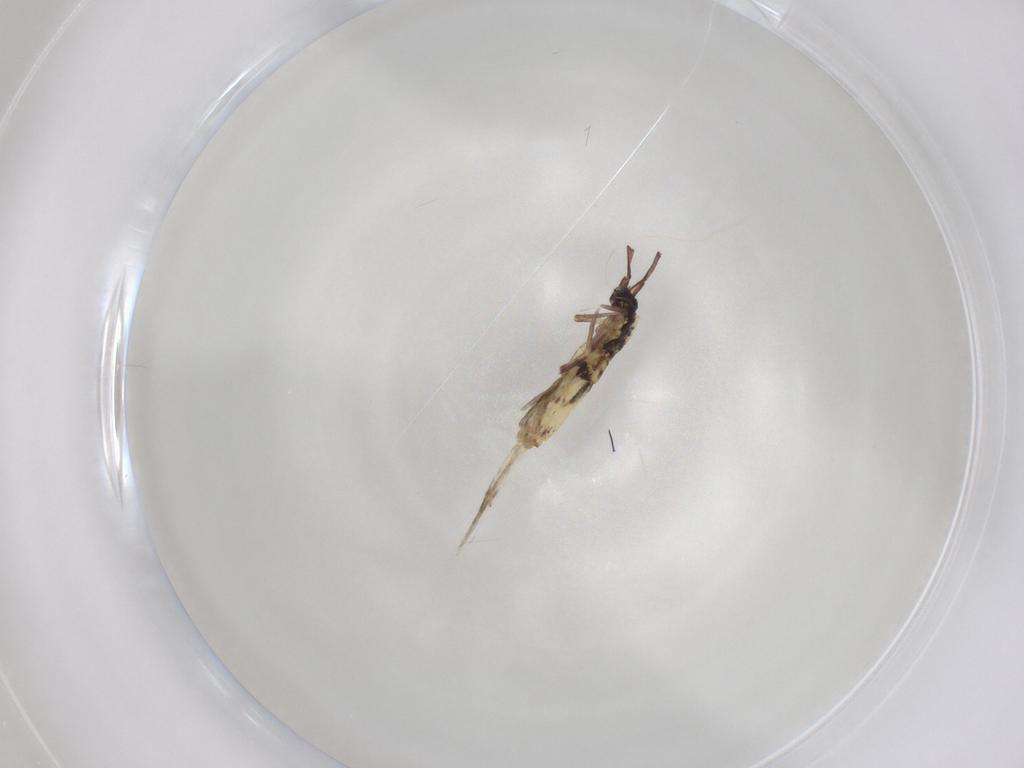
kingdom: Animalia
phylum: Arthropoda
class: Collembola
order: Entomobryomorpha
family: Entomobryidae
